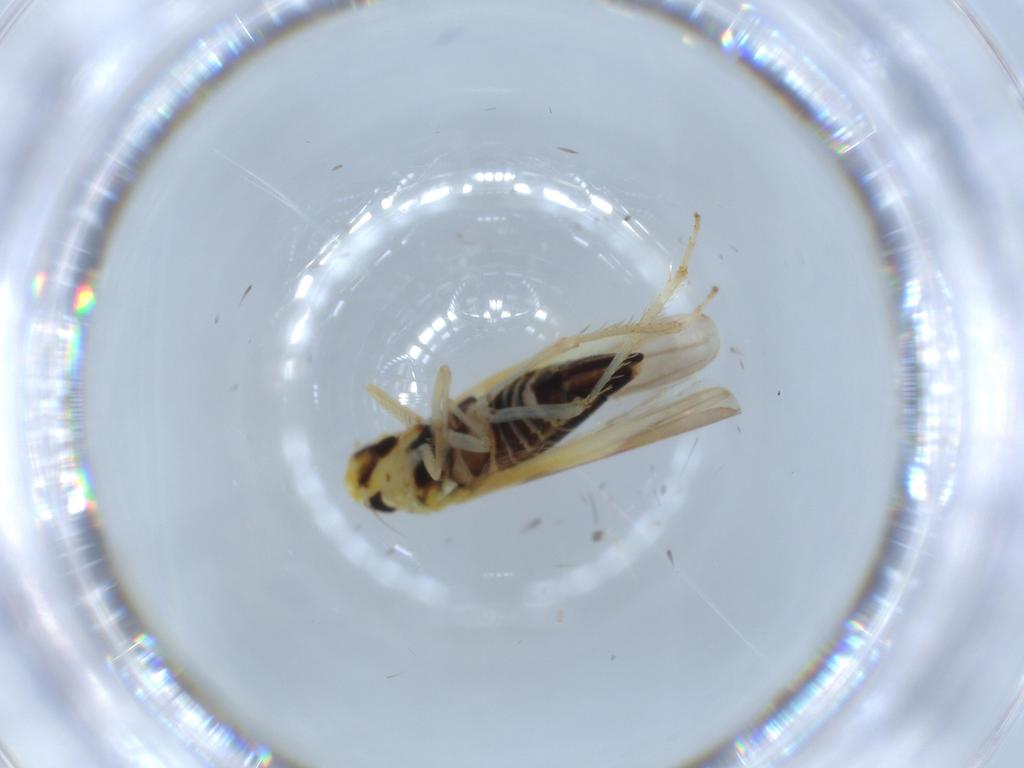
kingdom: Animalia
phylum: Arthropoda
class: Insecta
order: Hemiptera
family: Cicadellidae
